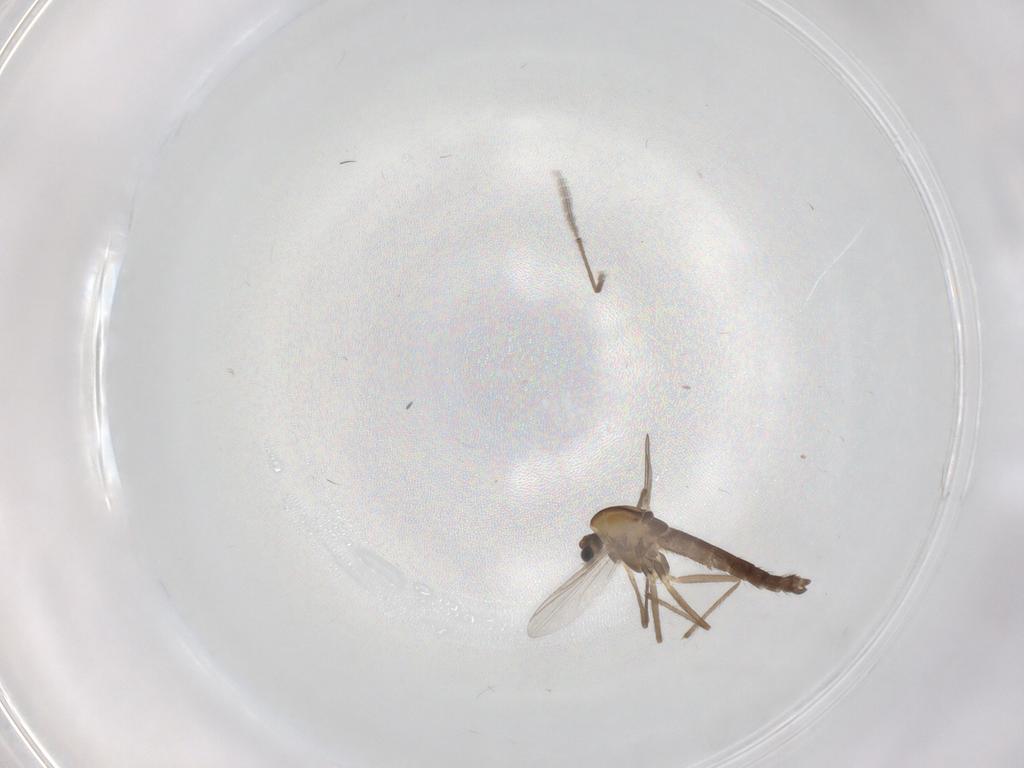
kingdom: Animalia
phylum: Arthropoda
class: Insecta
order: Diptera
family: Chironomidae
